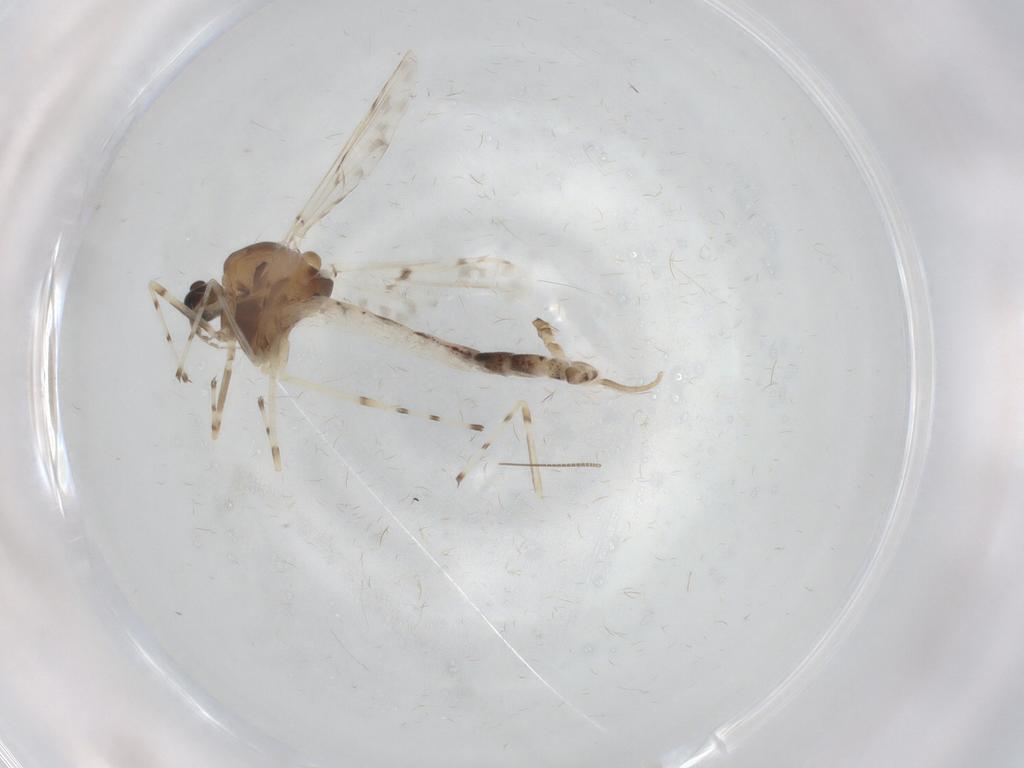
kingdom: Animalia
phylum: Arthropoda
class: Insecta
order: Diptera
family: Chironomidae
